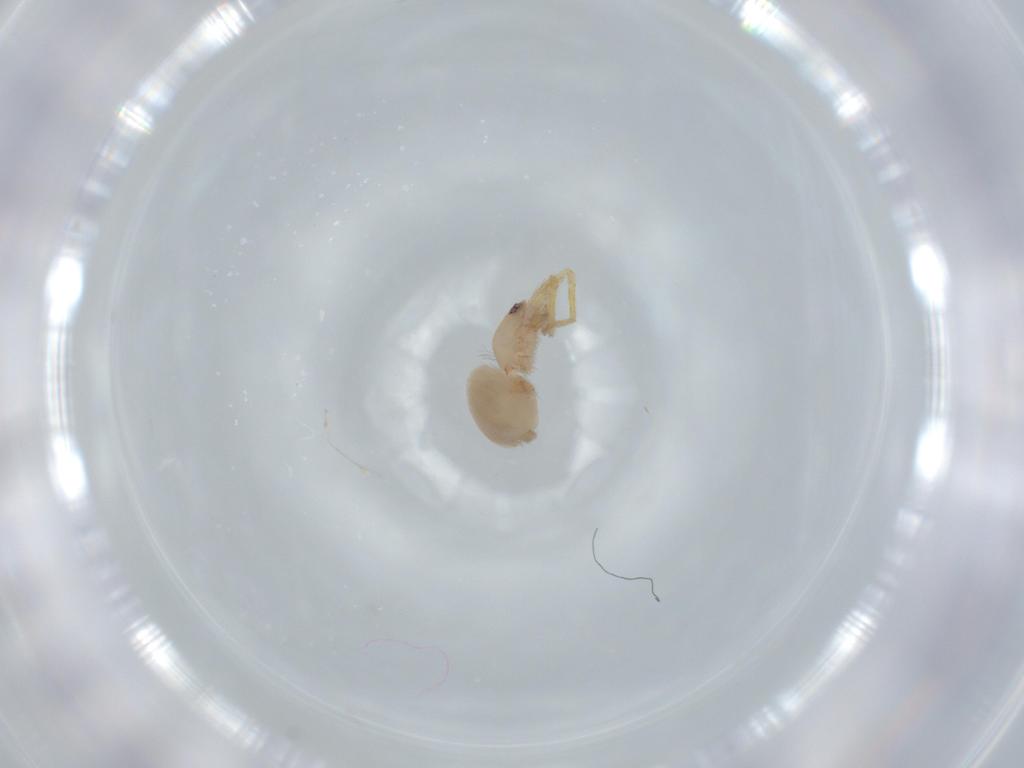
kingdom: Animalia
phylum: Arthropoda
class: Arachnida
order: Araneae
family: Oonopidae
